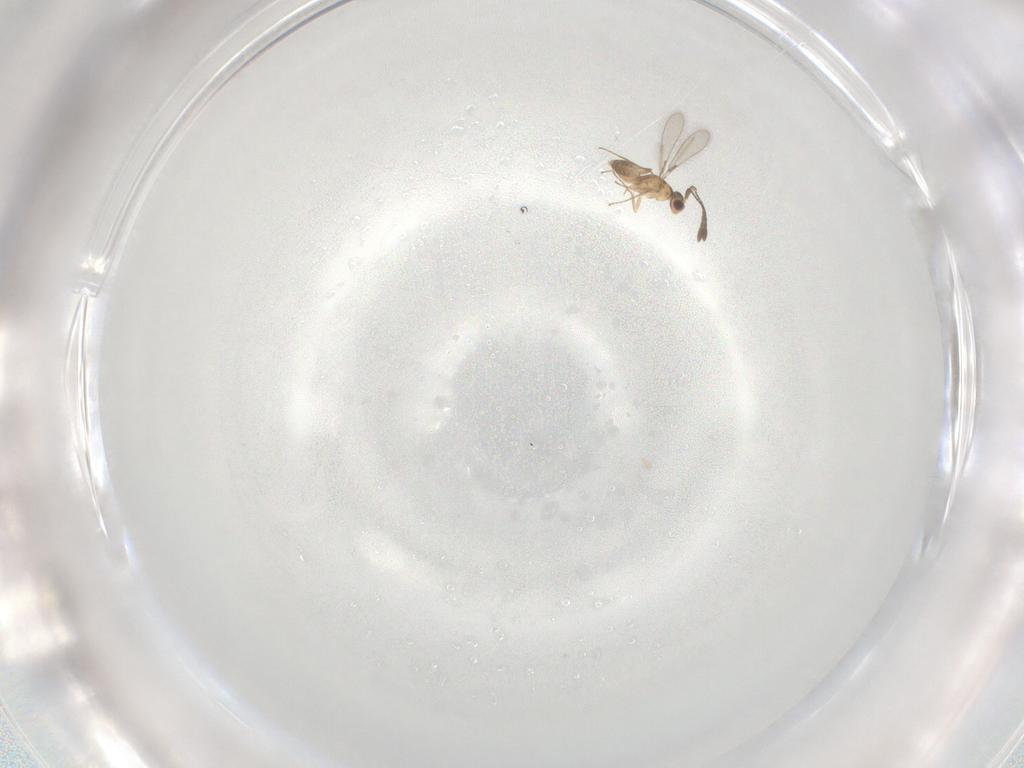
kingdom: Animalia
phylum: Arthropoda
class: Insecta
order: Hymenoptera
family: Mymaridae
